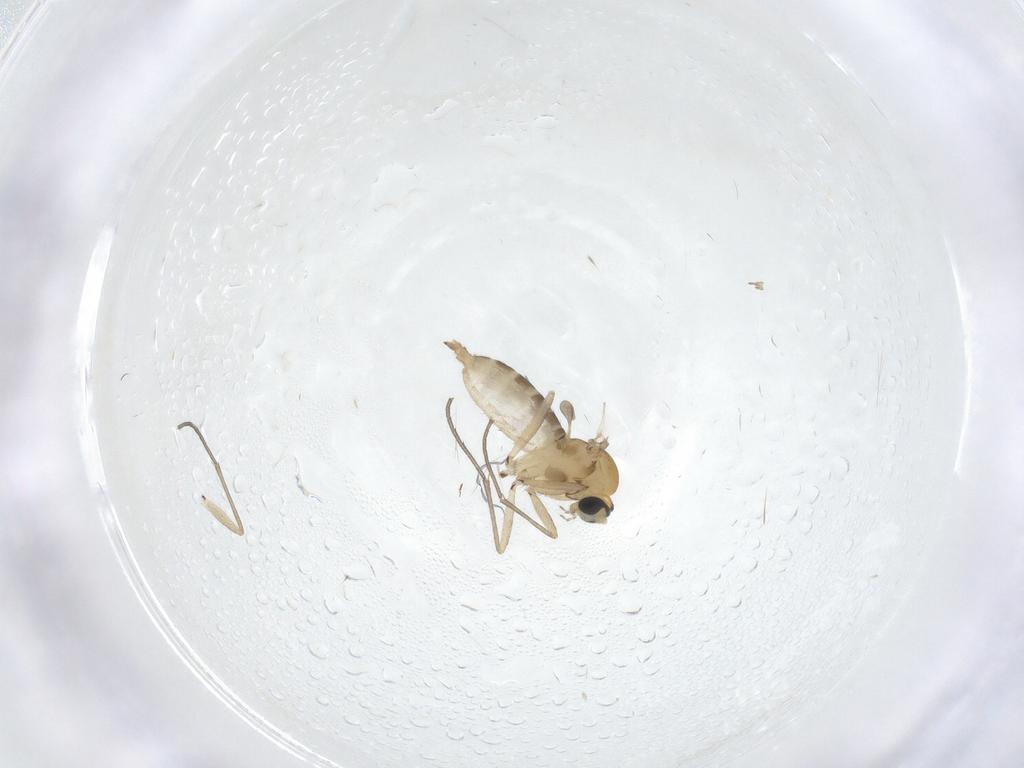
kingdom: Animalia
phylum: Arthropoda
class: Insecta
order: Diptera
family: Sciaridae
